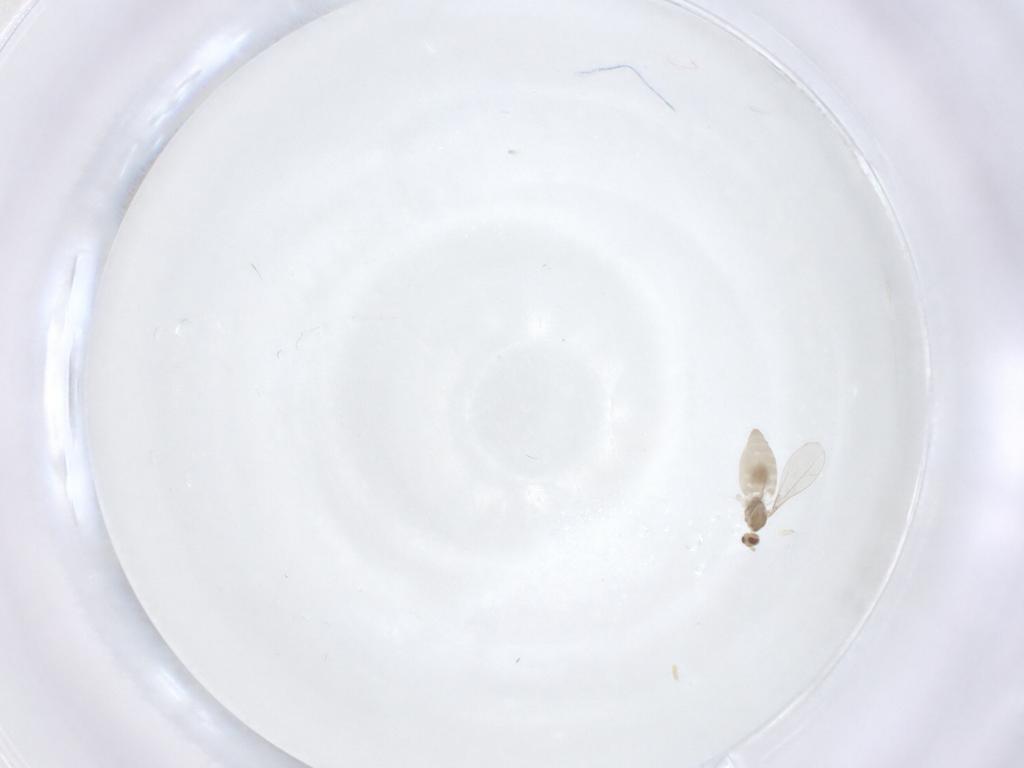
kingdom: Animalia
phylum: Arthropoda
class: Insecta
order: Diptera
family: Cecidomyiidae
